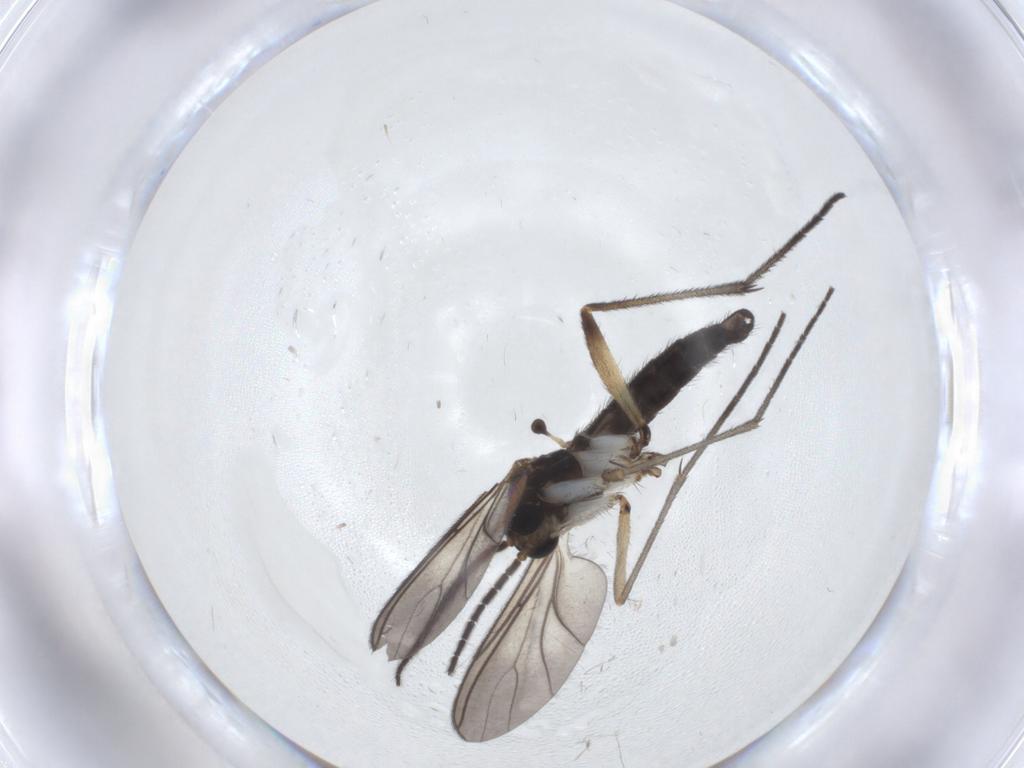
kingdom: Animalia
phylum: Arthropoda
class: Insecta
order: Diptera
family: Sciaridae
